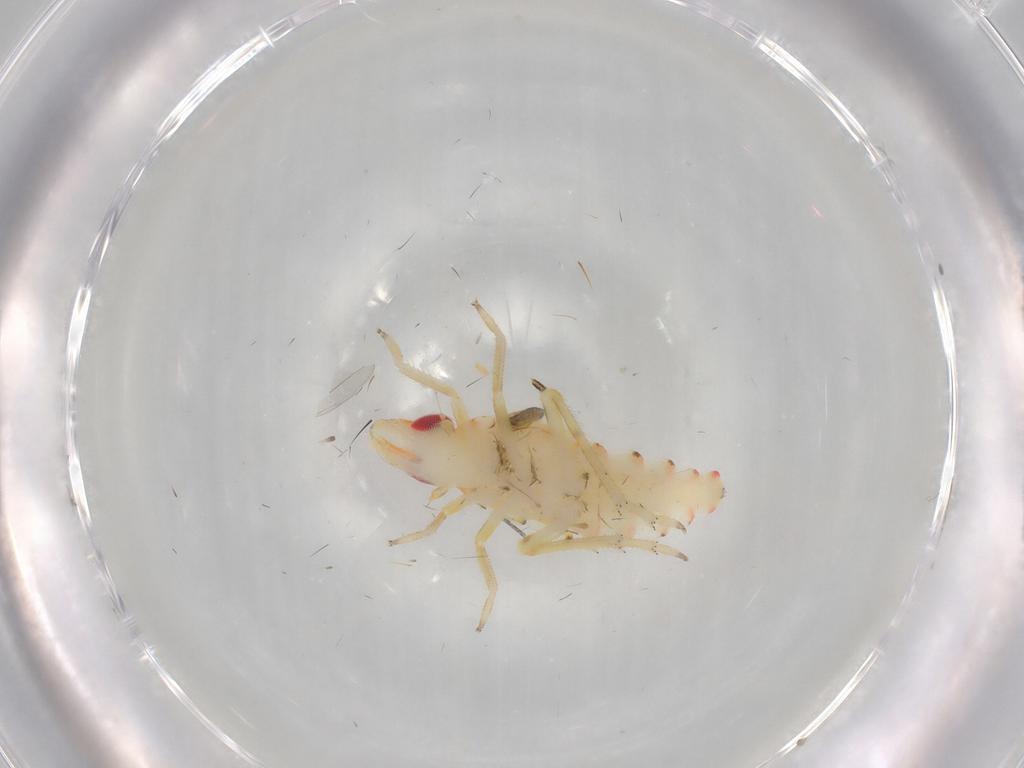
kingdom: Animalia
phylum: Arthropoda
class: Insecta
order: Hemiptera
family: Tropiduchidae
